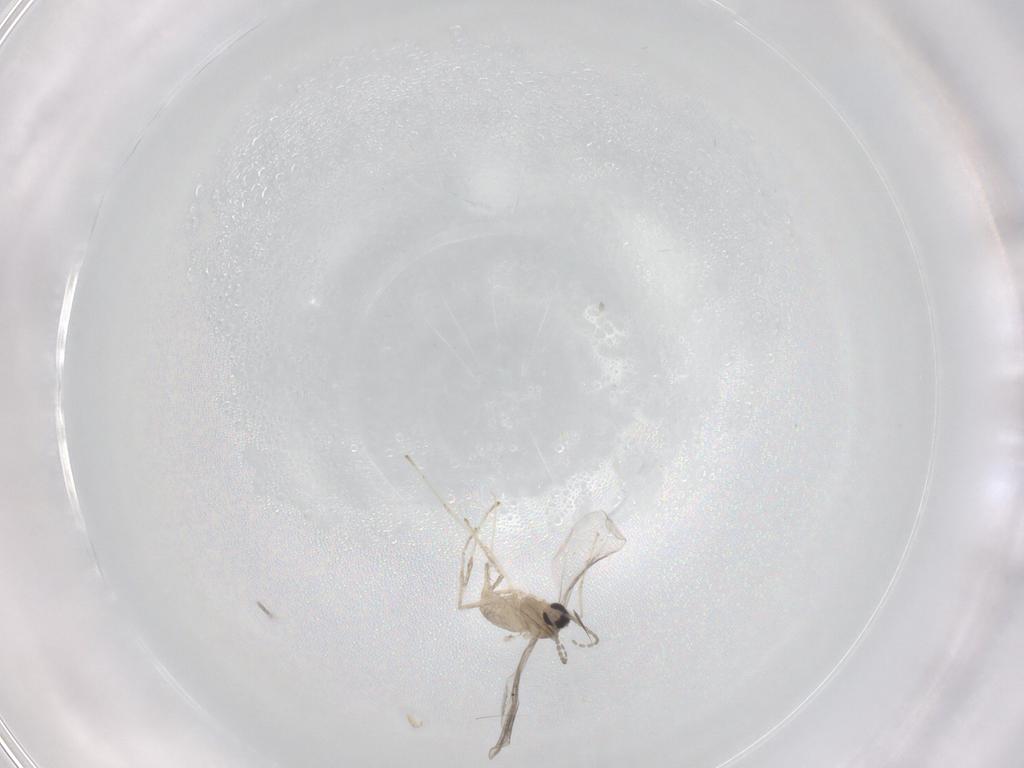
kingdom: Animalia
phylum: Arthropoda
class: Insecta
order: Diptera
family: Cecidomyiidae
